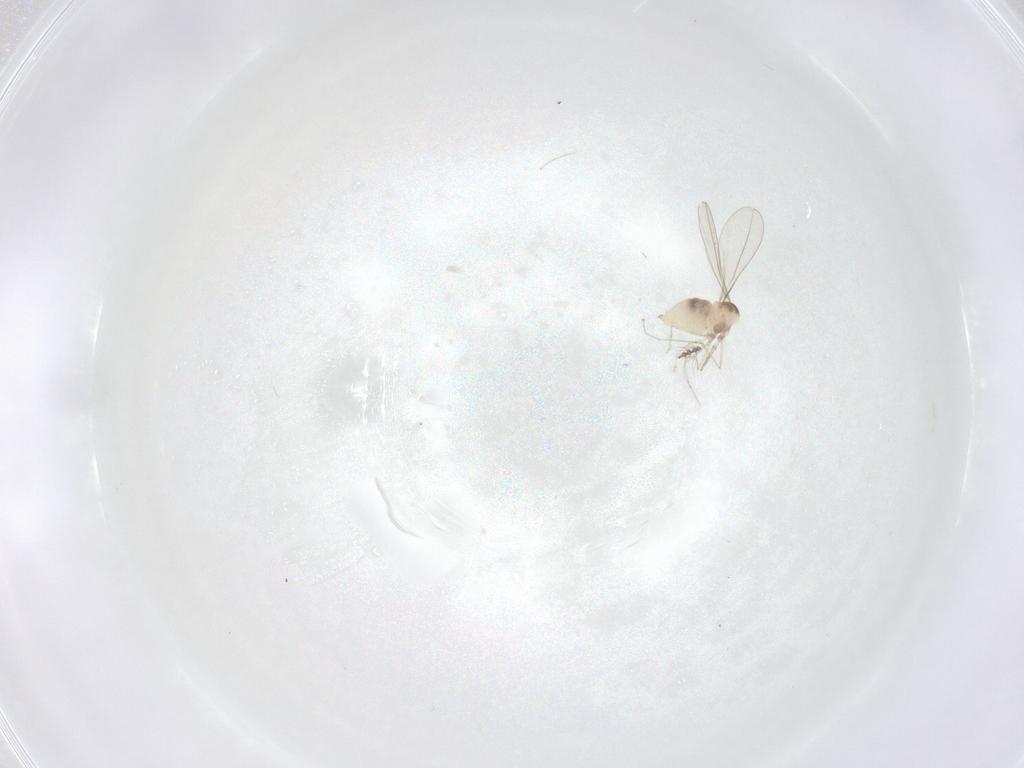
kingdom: Animalia
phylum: Arthropoda
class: Insecta
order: Diptera
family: Cecidomyiidae
